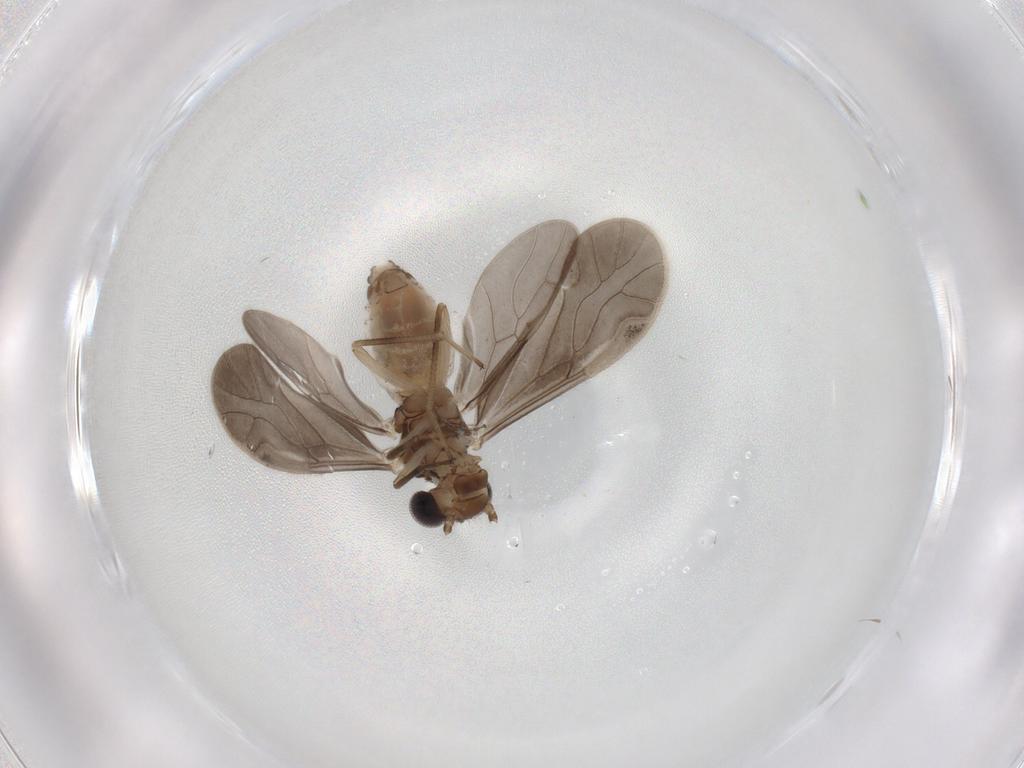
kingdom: Animalia
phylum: Arthropoda
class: Insecta
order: Psocodea
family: Caeciliusidae
